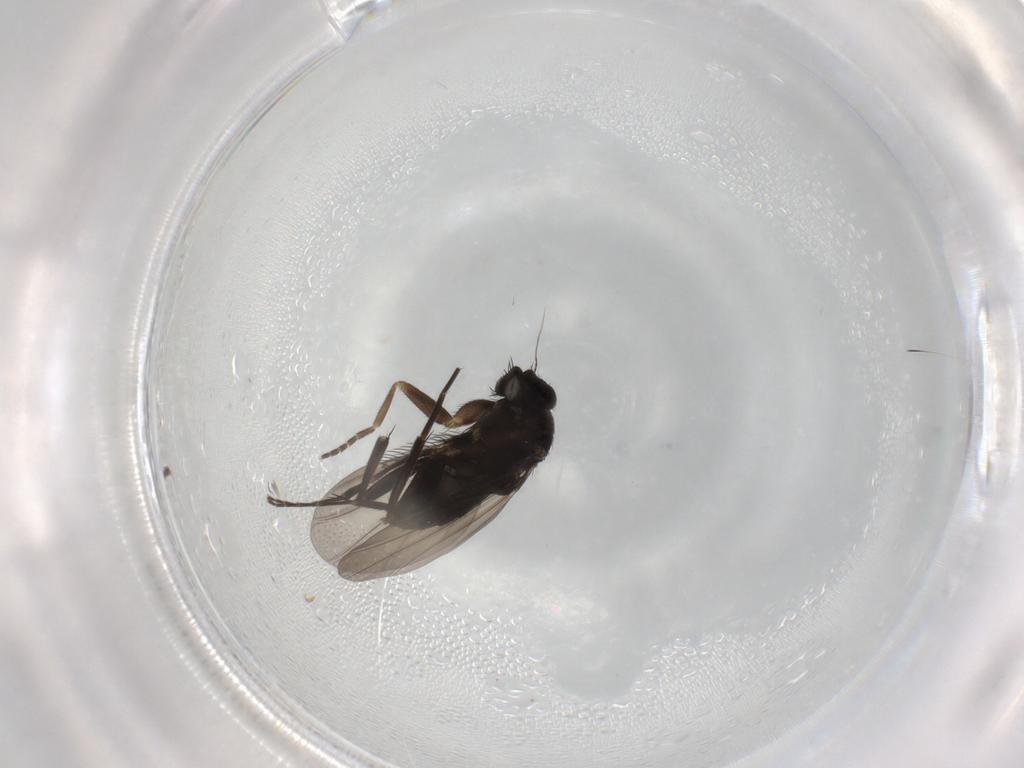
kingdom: Animalia
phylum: Arthropoda
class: Insecta
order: Diptera
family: Phoridae
